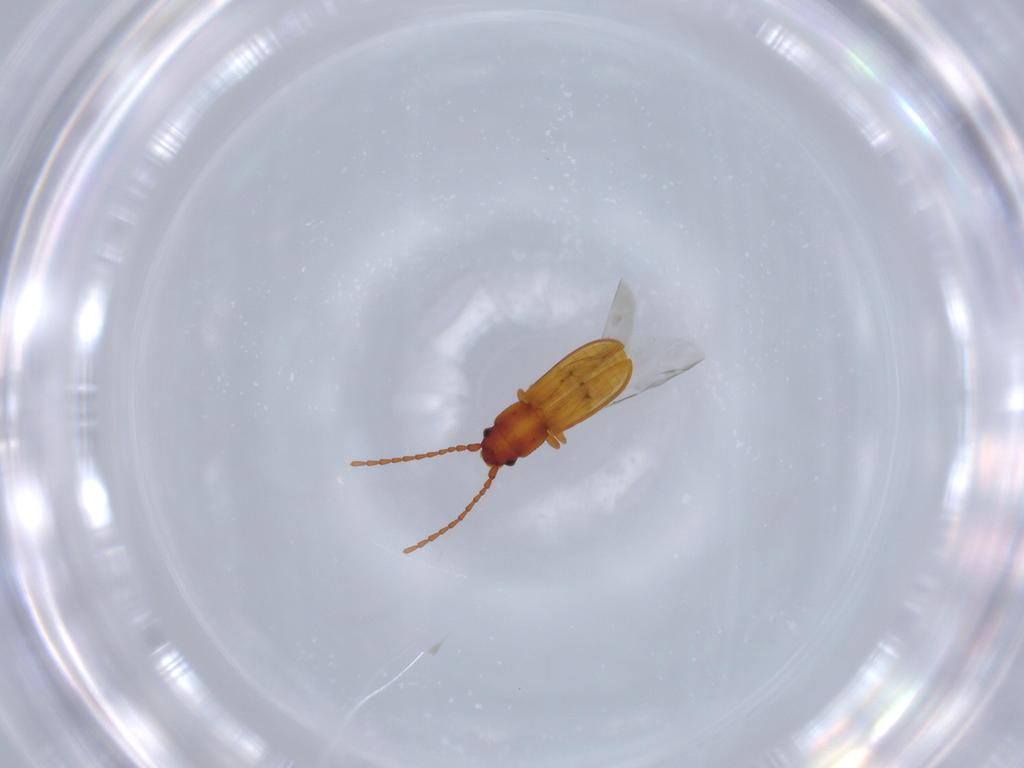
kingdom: Animalia
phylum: Arthropoda
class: Insecta
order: Coleoptera
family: Laemophloeidae
